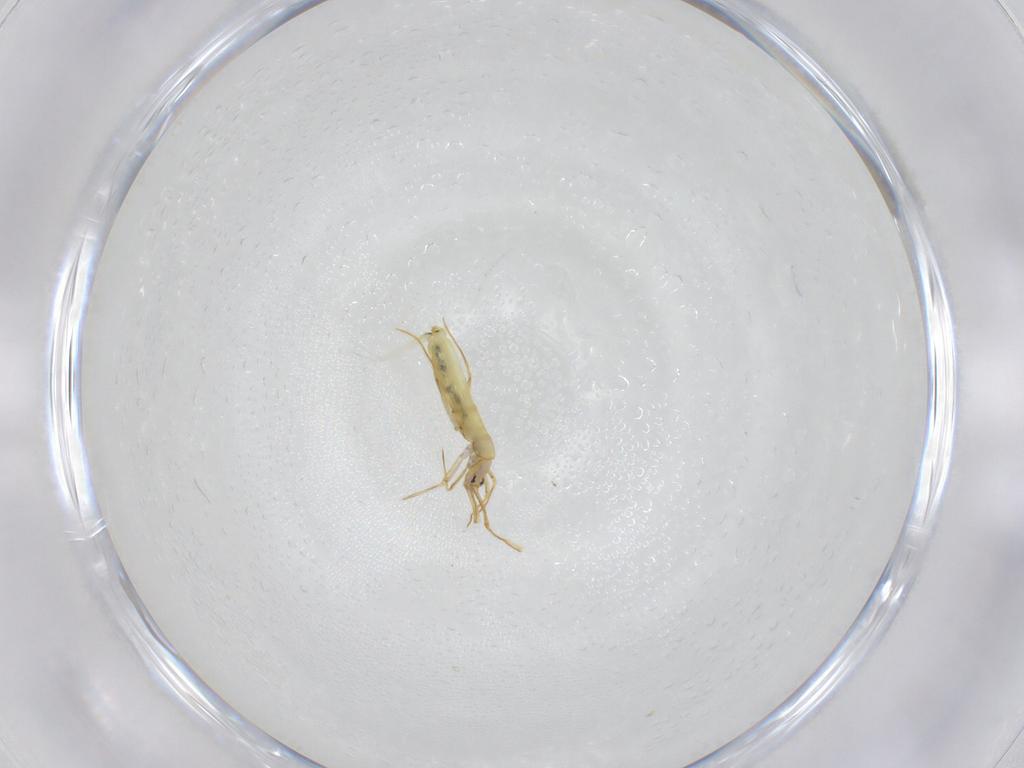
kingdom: Animalia
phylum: Arthropoda
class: Collembola
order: Entomobryomorpha
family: Entomobryidae
